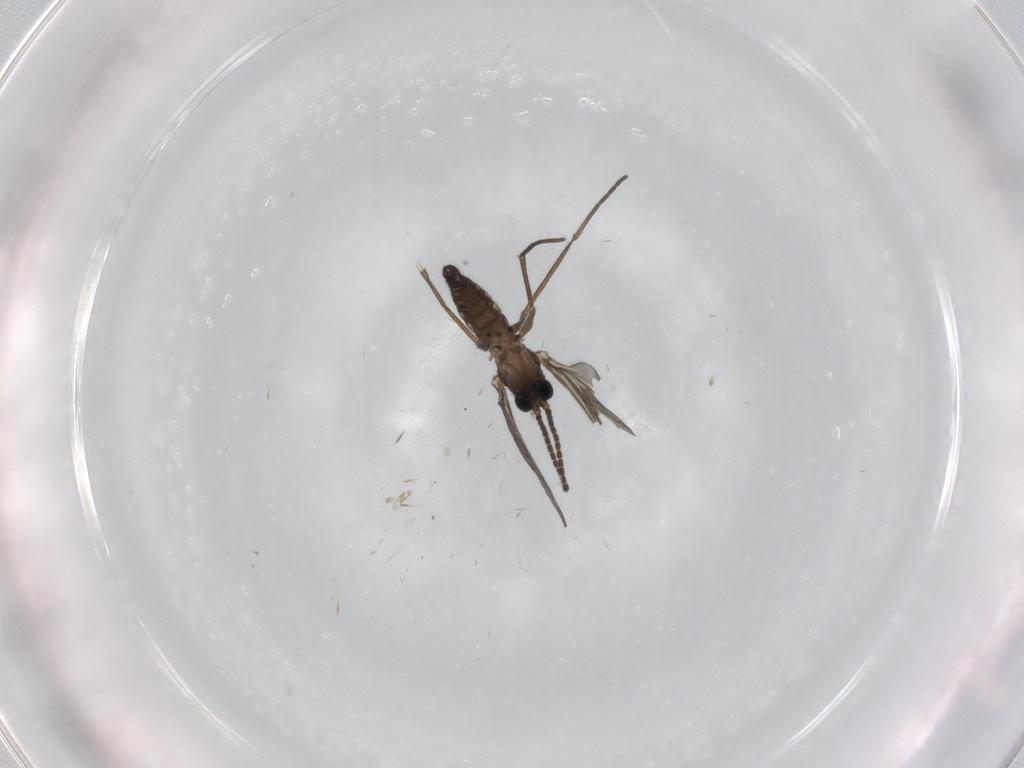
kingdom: Animalia
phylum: Arthropoda
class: Insecta
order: Diptera
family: Sciaridae
